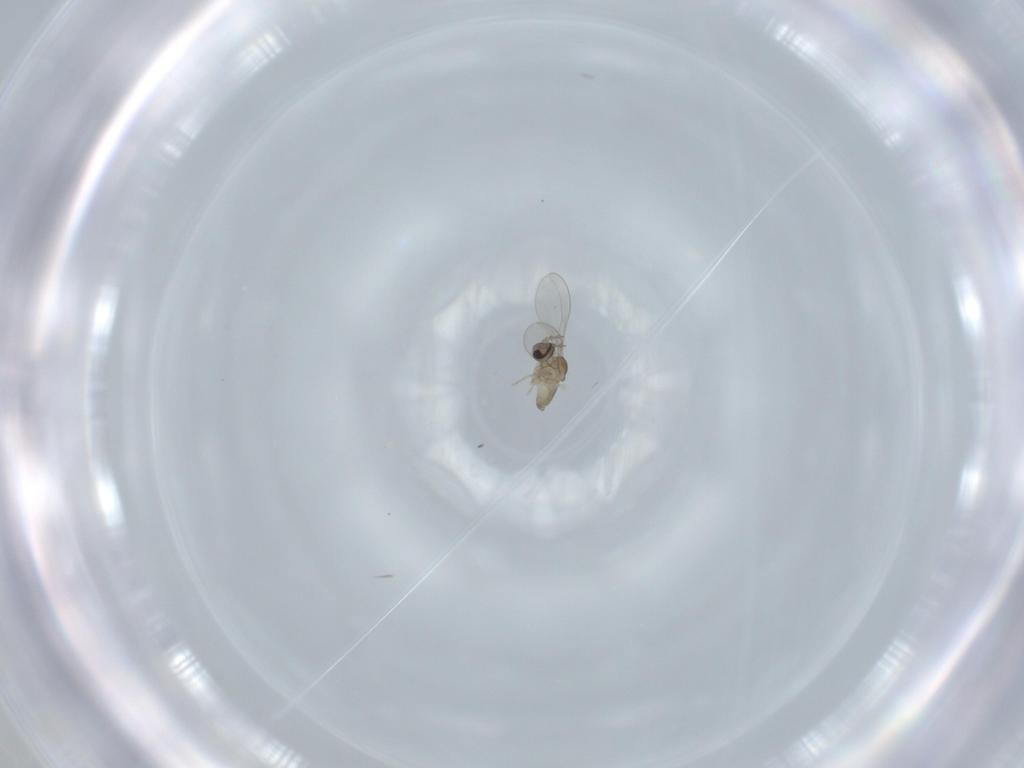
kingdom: Animalia
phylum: Arthropoda
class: Insecta
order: Diptera
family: Cecidomyiidae
